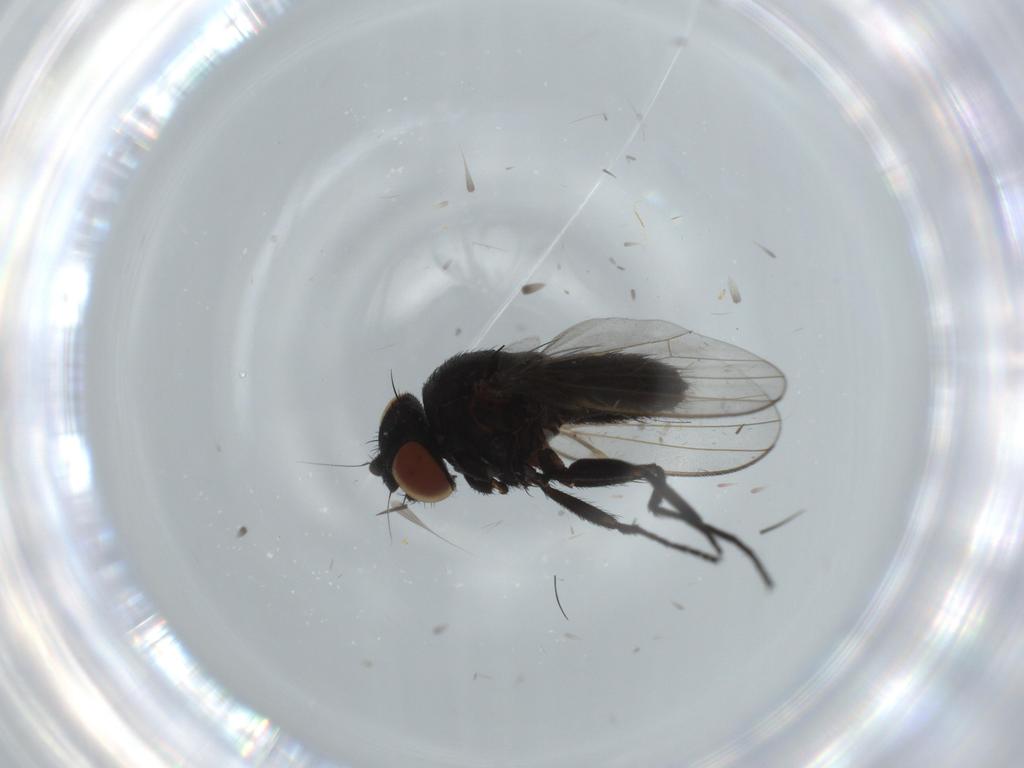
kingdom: Animalia
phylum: Arthropoda
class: Insecta
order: Diptera
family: Milichiidae
